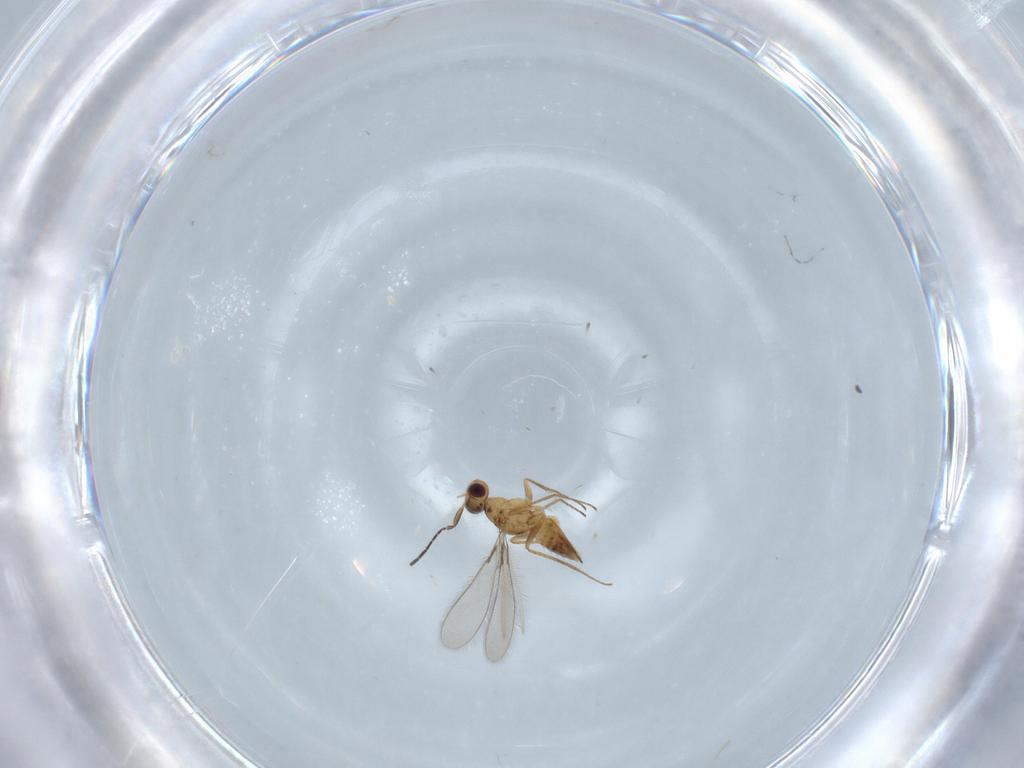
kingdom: Animalia
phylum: Arthropoda
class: Insecta
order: Hymenoptera
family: Mymaridae
